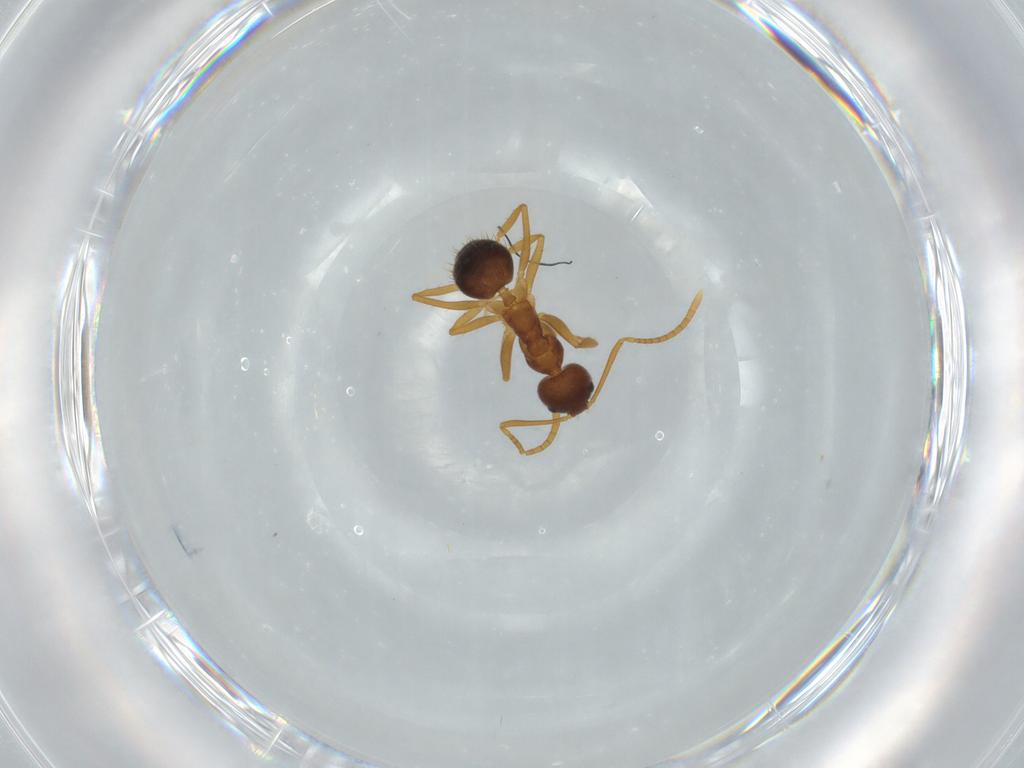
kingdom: Animalia
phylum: Arthropoda
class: Insecta
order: Hymenoptera
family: Formicidae
